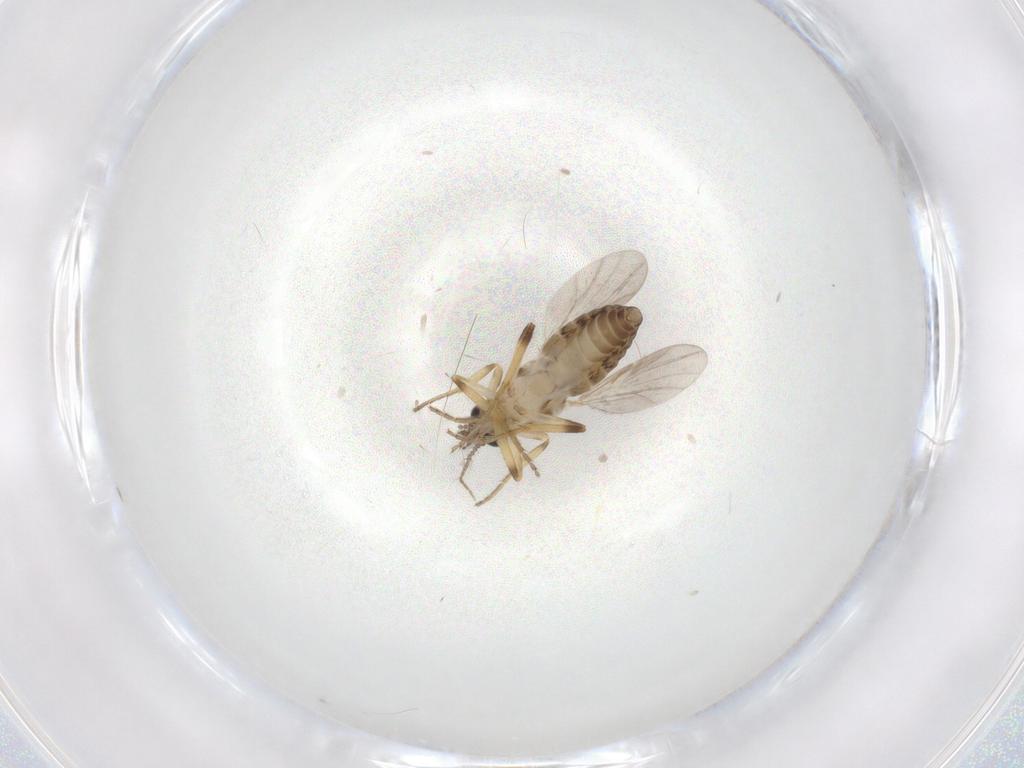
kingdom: Animalia
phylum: Arthropoda
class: Insecta
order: Diptera
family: Ceratopogonidae
